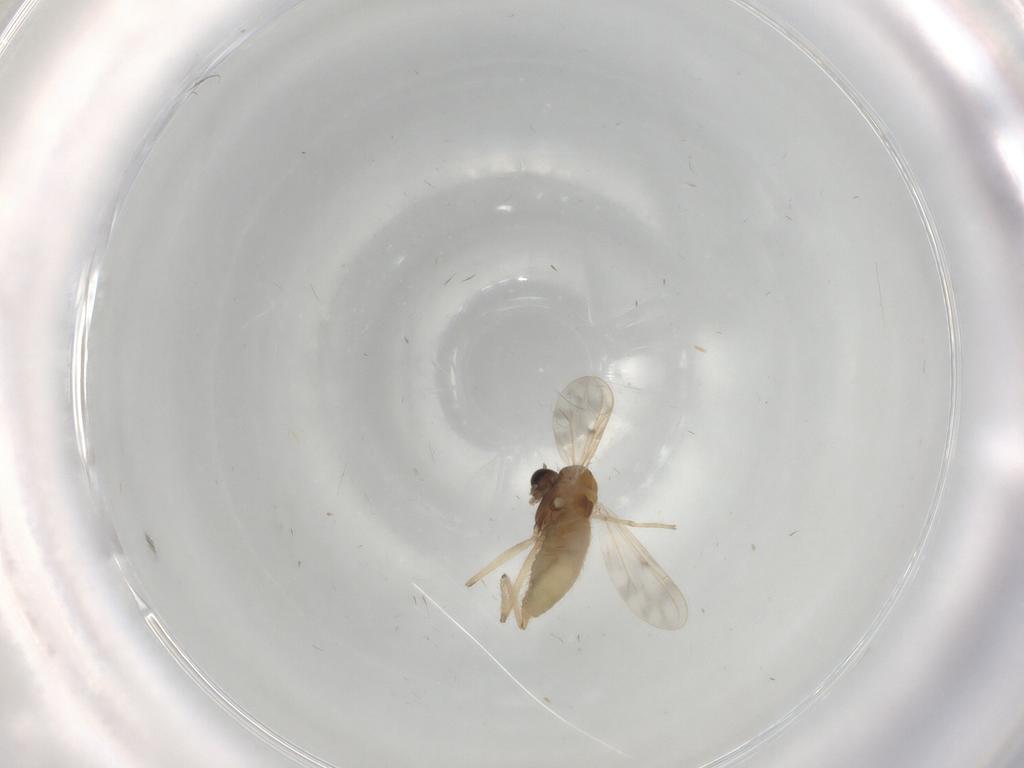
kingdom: Animalia
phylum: Arthropoda
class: Insecta
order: Diptera
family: Chironomidae
